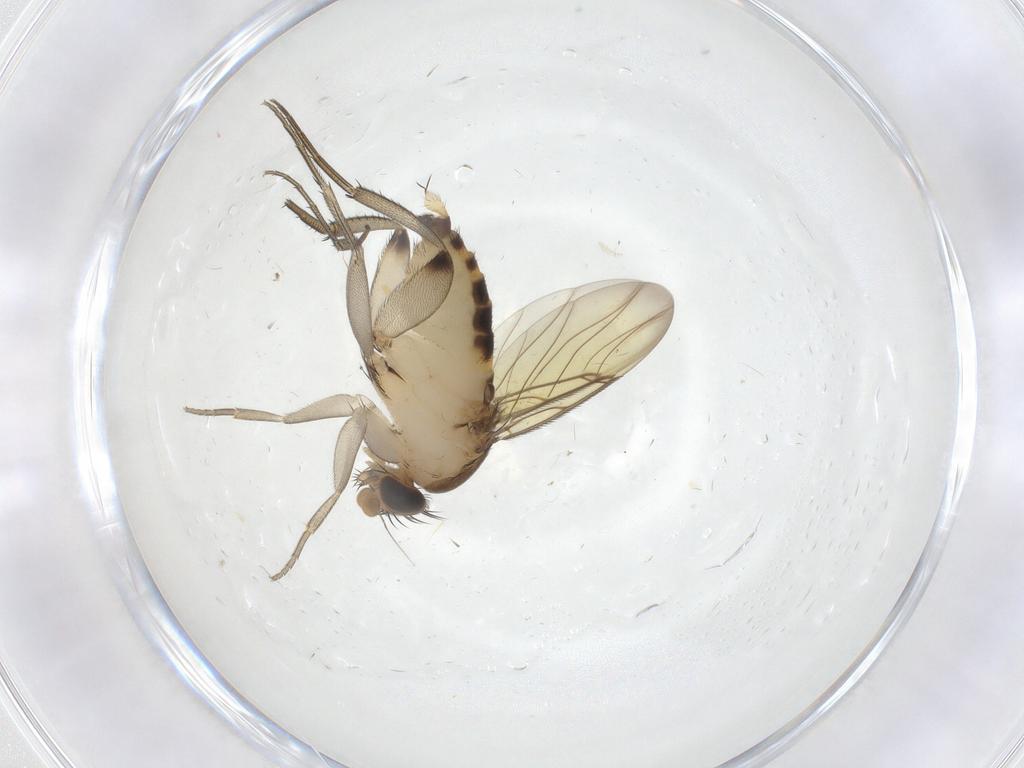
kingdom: Animalia
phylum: Arthropoda
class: Insecta
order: Diptera
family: Phoridae
